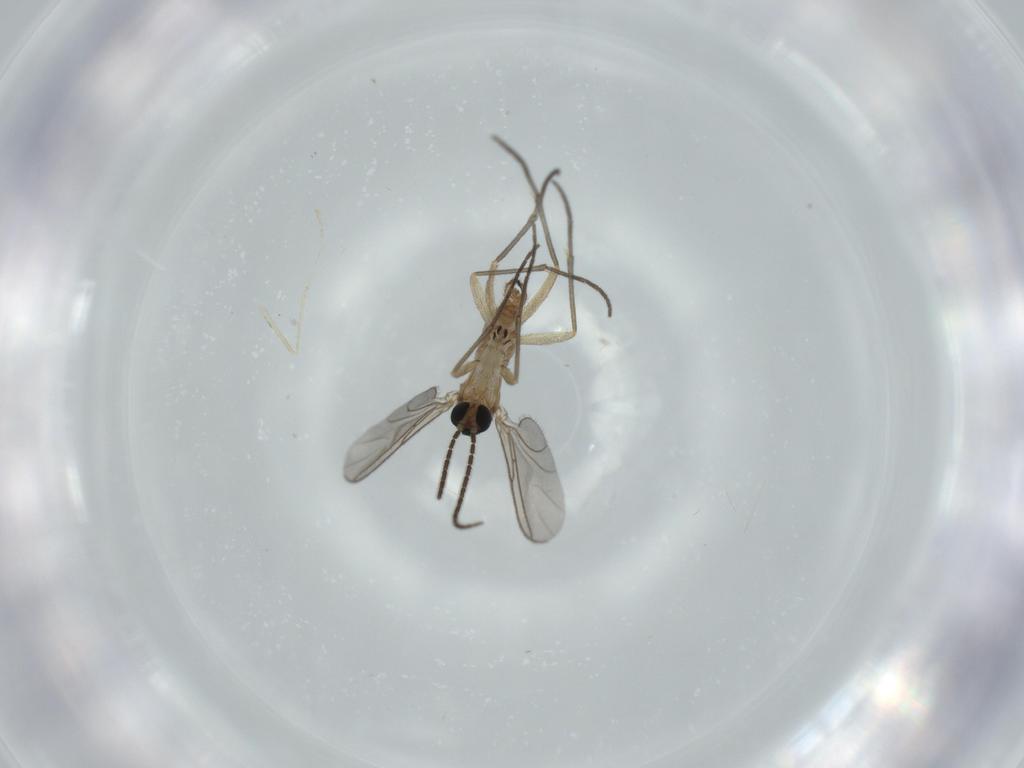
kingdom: Animalia
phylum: Arthropoda
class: Insecta
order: Diptera
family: Sciaridae
